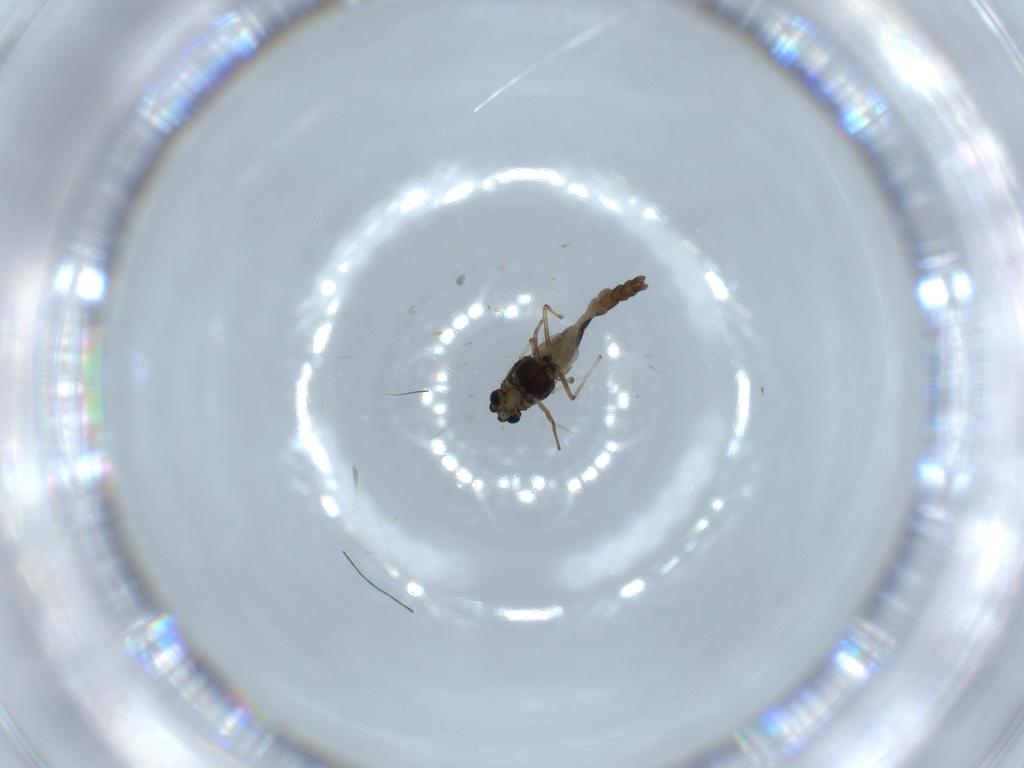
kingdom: Animalia
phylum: Arthropoda
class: Insecta
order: Diptera
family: Chironomidae
